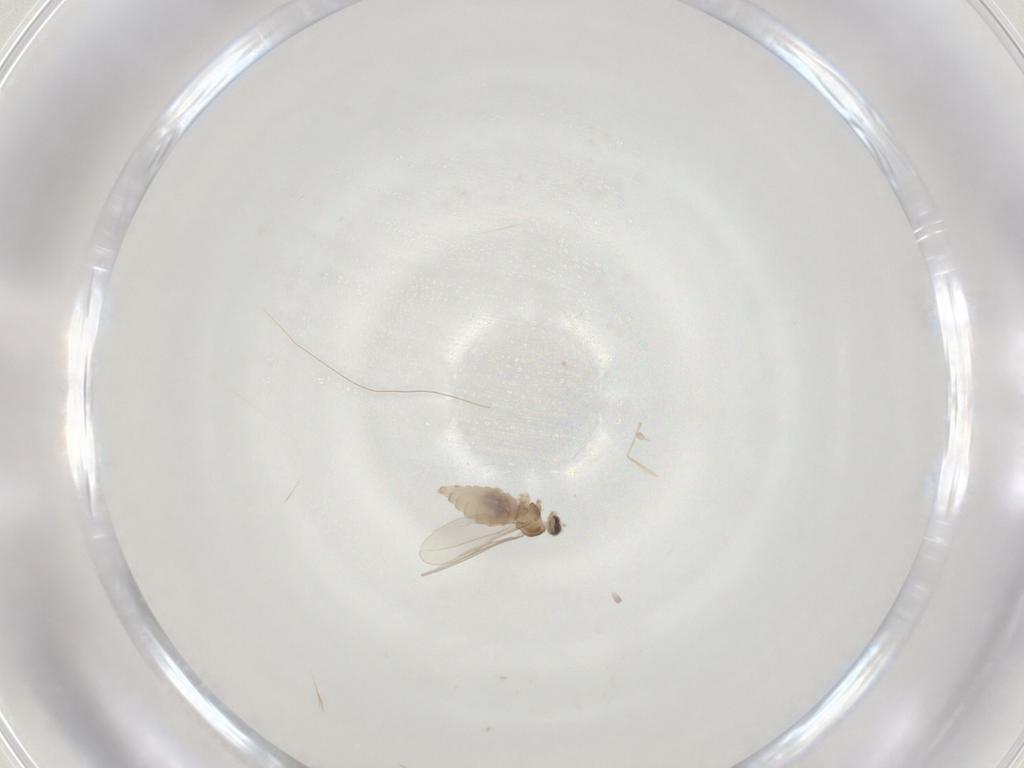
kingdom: Animalia
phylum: Arthropoda
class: Insecta
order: Diptera
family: Cecidomyiidae
